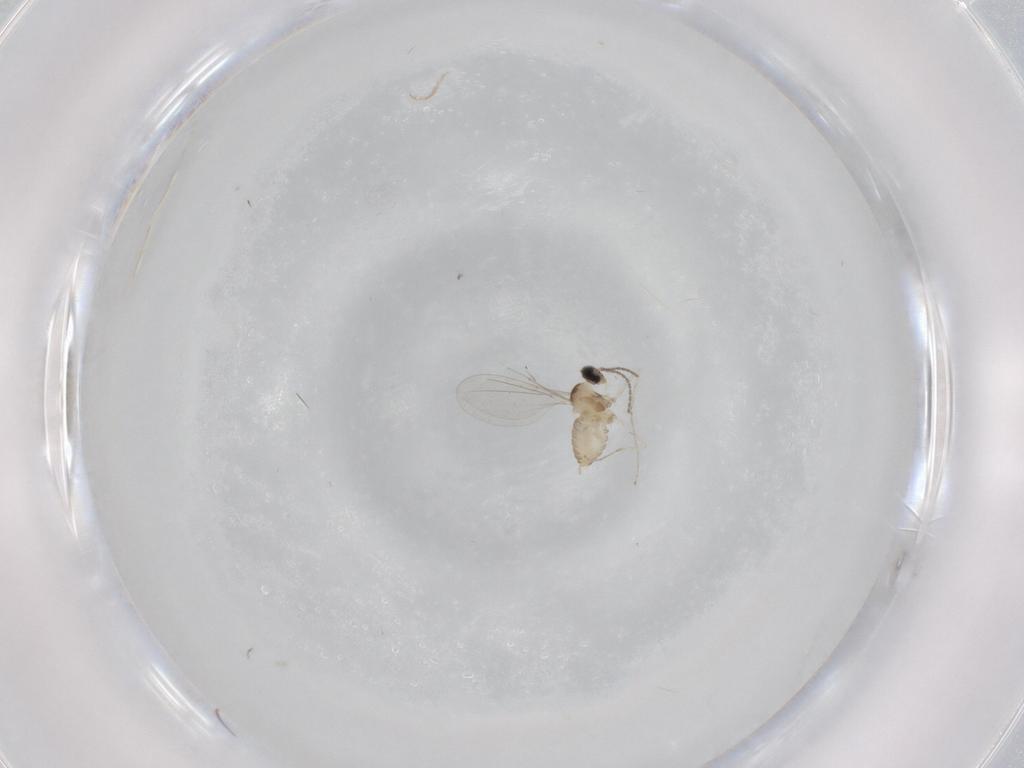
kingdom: Animalia
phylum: Arthropoda
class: Insecta
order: Diptera
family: Cecidomyiidae
